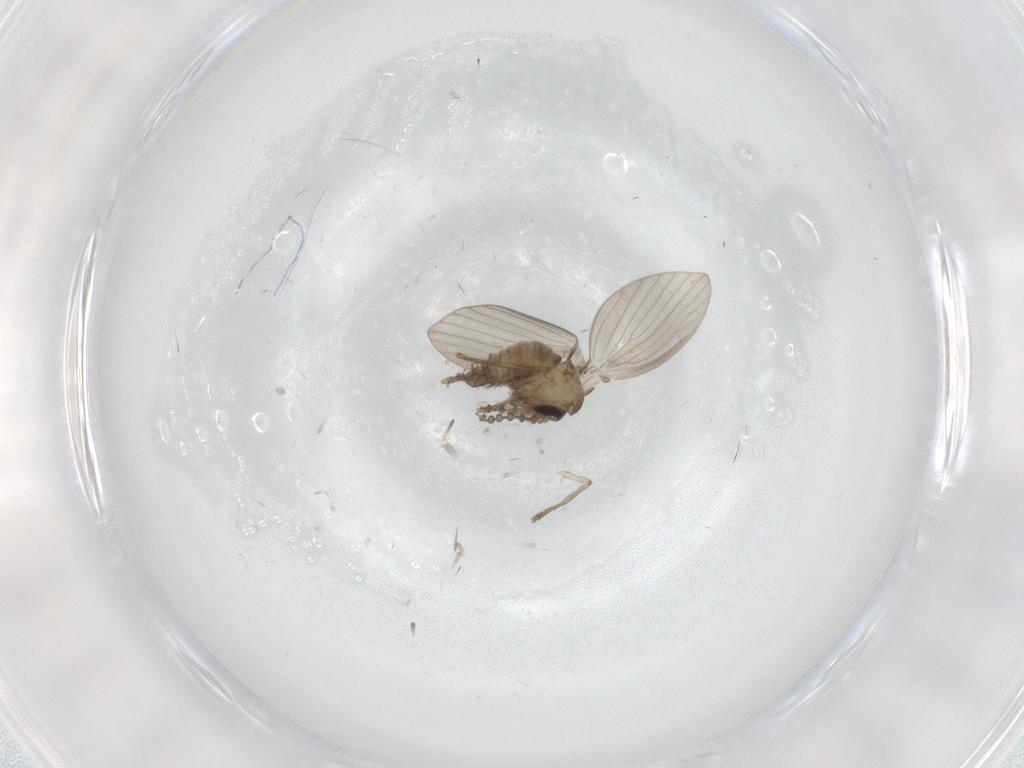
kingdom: Animalia
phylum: Arthropoda
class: Insecta
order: Diptera
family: Psychodidae
